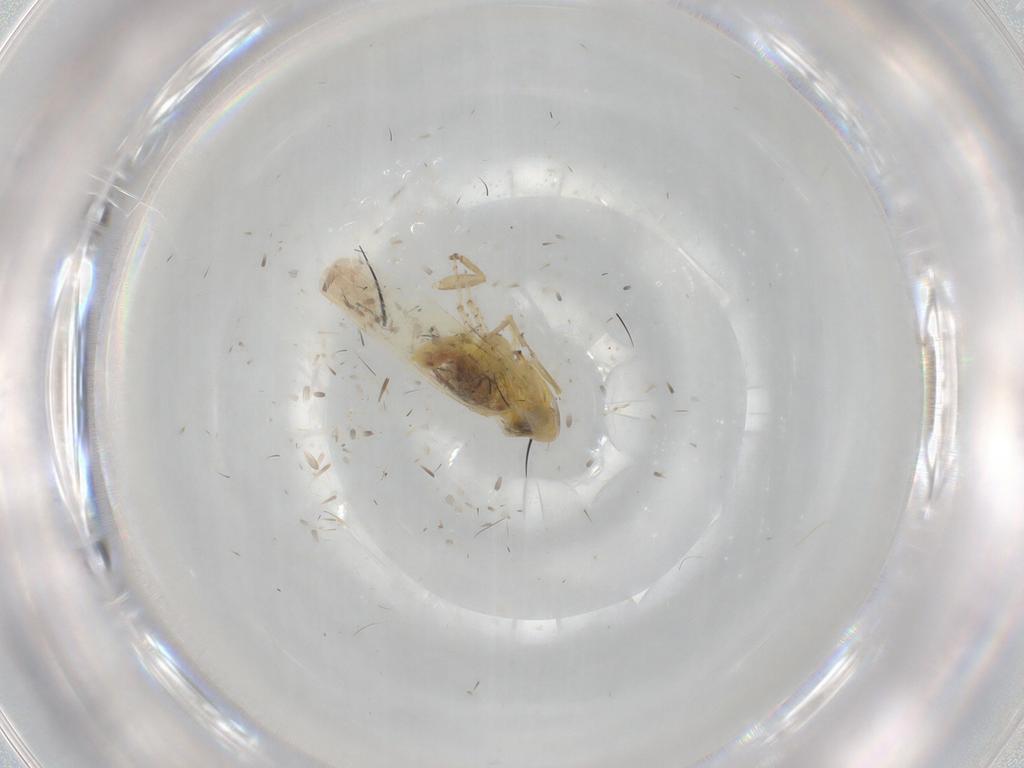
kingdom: Animalia
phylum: Arthropoda
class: Insecta
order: Hemiptera
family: Cicadellidae
